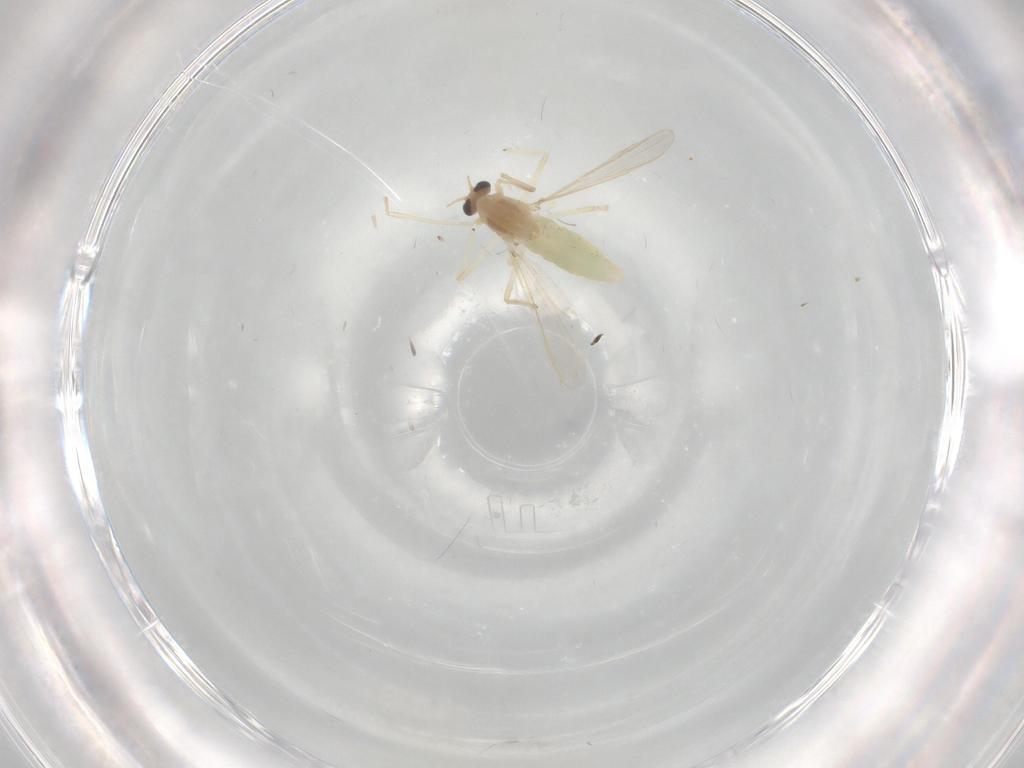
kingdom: Animalia
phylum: Arthropoda
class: Insecta
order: Diptera
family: Chironomidae
